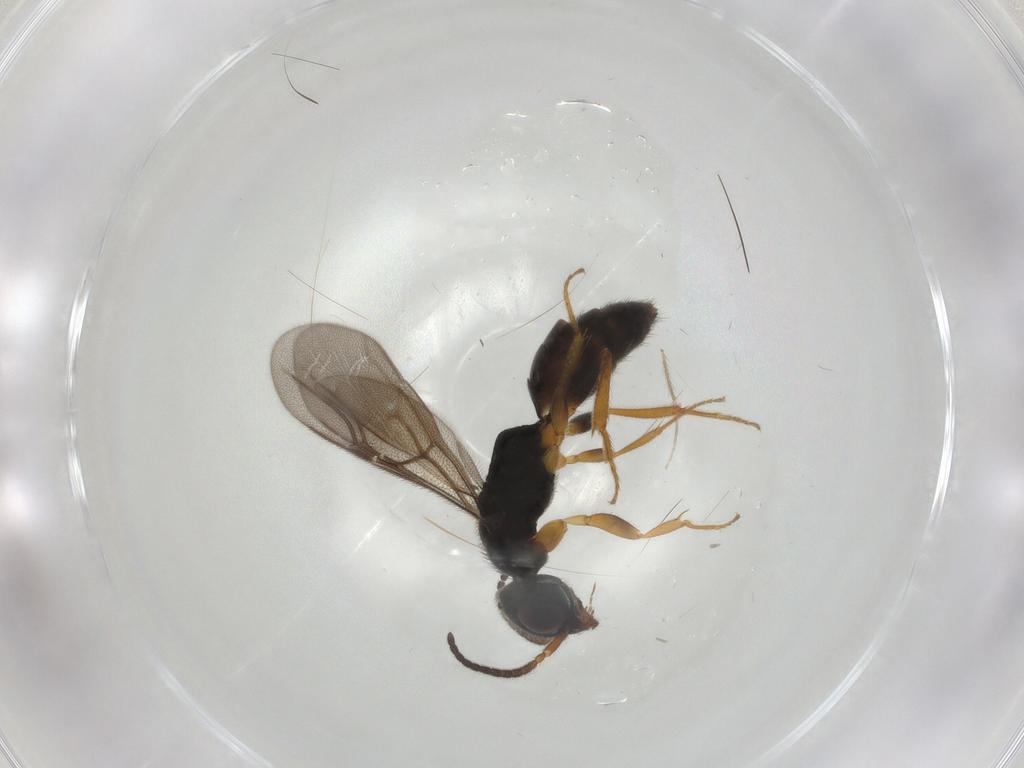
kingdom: Animalia
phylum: Arthropoda
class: Insecta
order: Hymenoptera
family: Bethylidae
